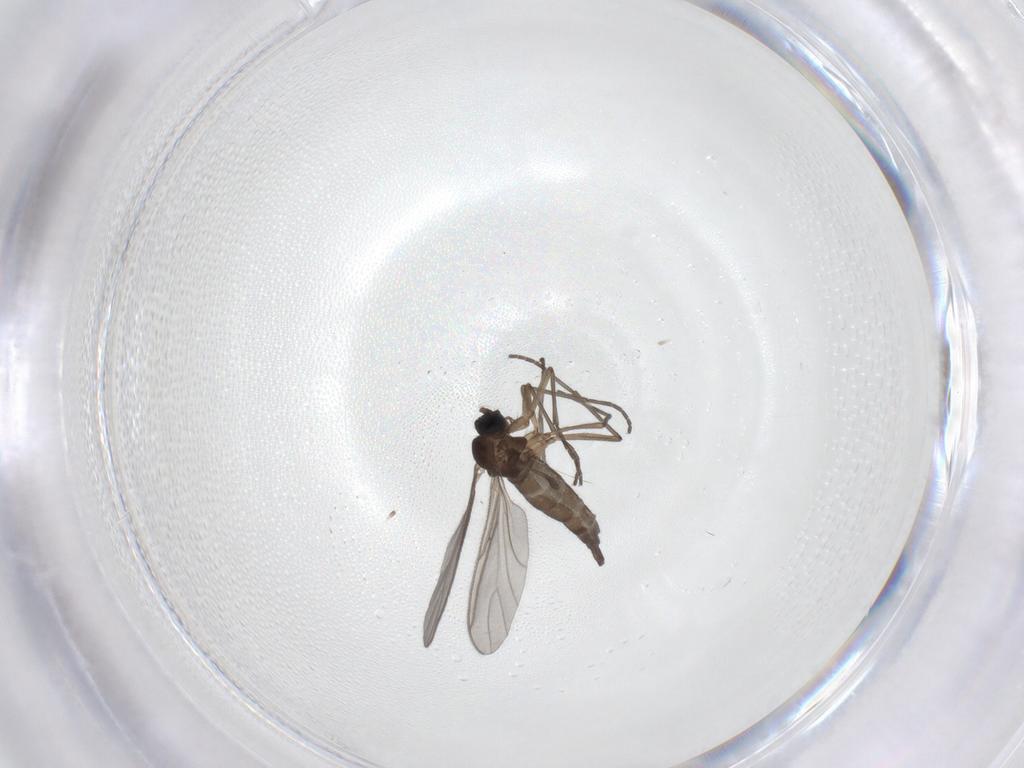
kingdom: Animalia
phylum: Arthropoda
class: Insecta
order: Diptera
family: Sciaridae
